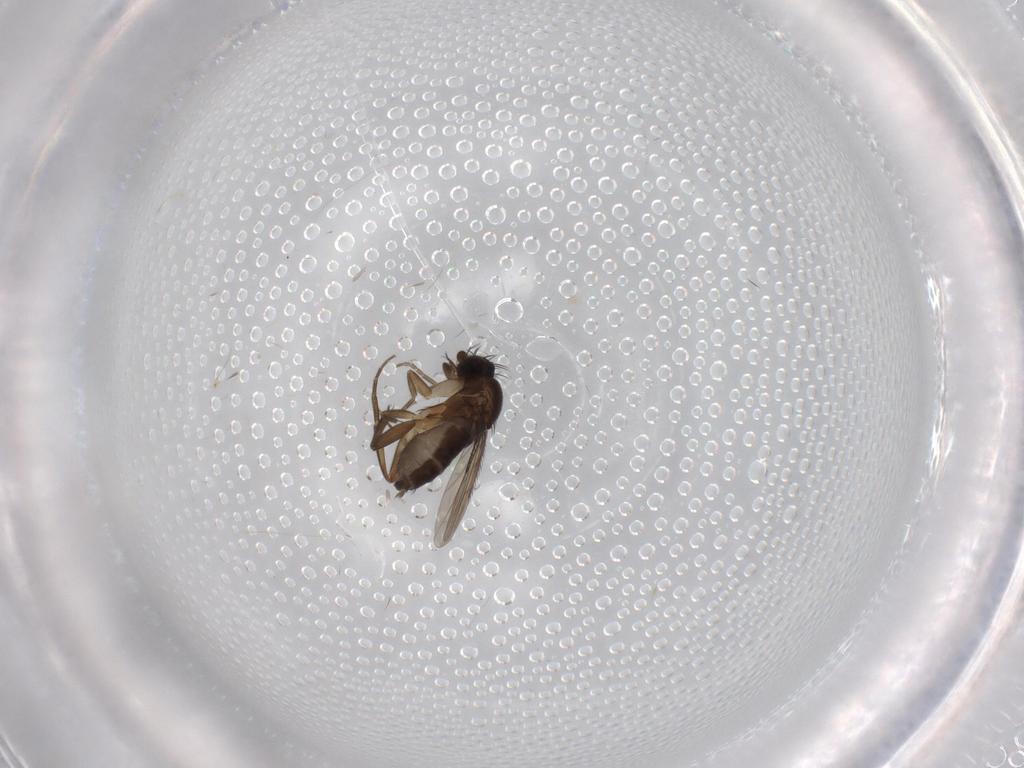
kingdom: Animalia
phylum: Arthropoda
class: Insecta
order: Diptera
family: Phoridae
